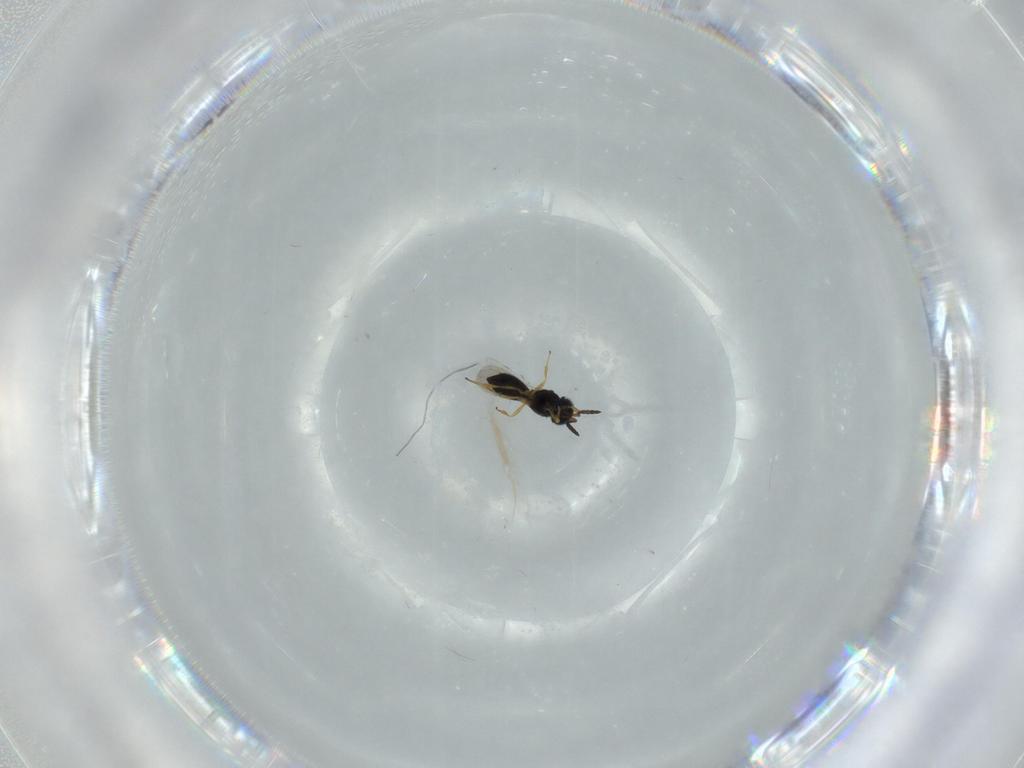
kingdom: Animalia
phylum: Arthropoda
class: Insecta
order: Hymenoptera
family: Scelionidae
